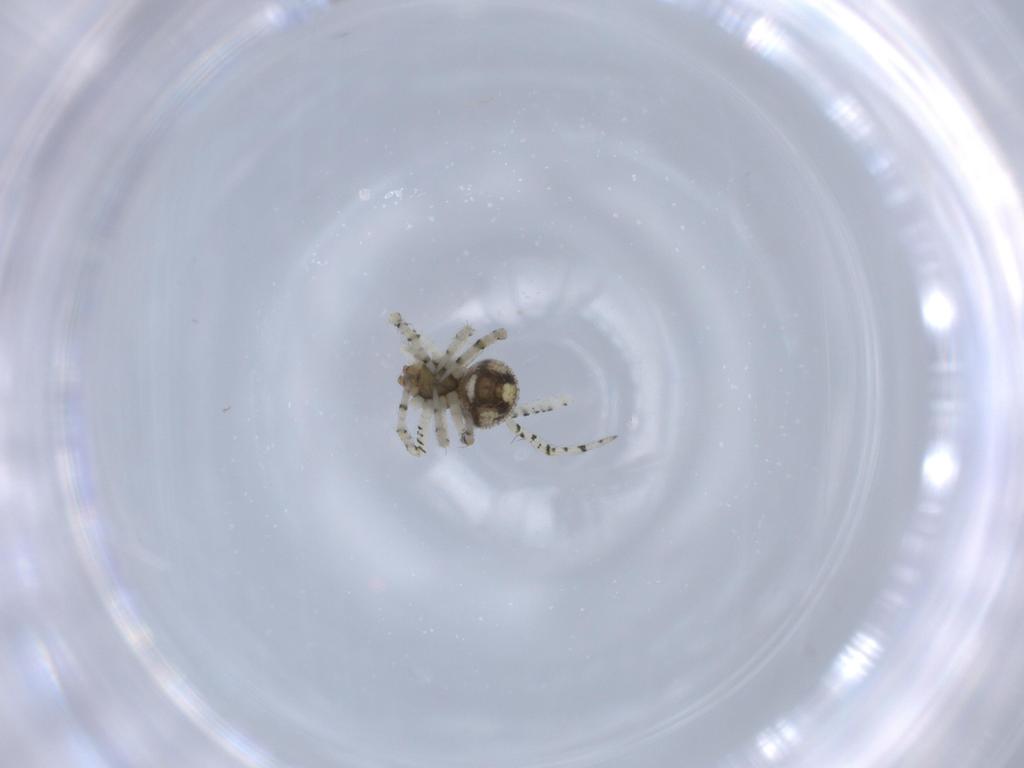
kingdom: Animalia
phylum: Arthropoda
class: Arachnida
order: Araneae
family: Theridiidae
